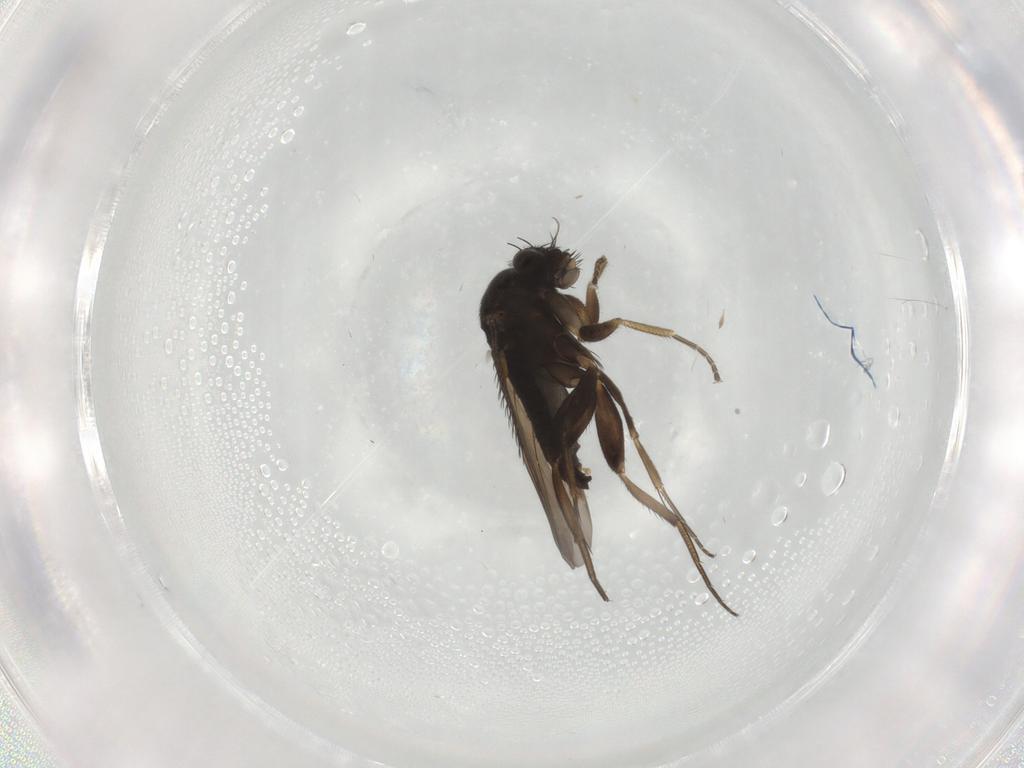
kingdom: Animalia
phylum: Arthropoda
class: Insecta
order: Diptera
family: Phoridae
